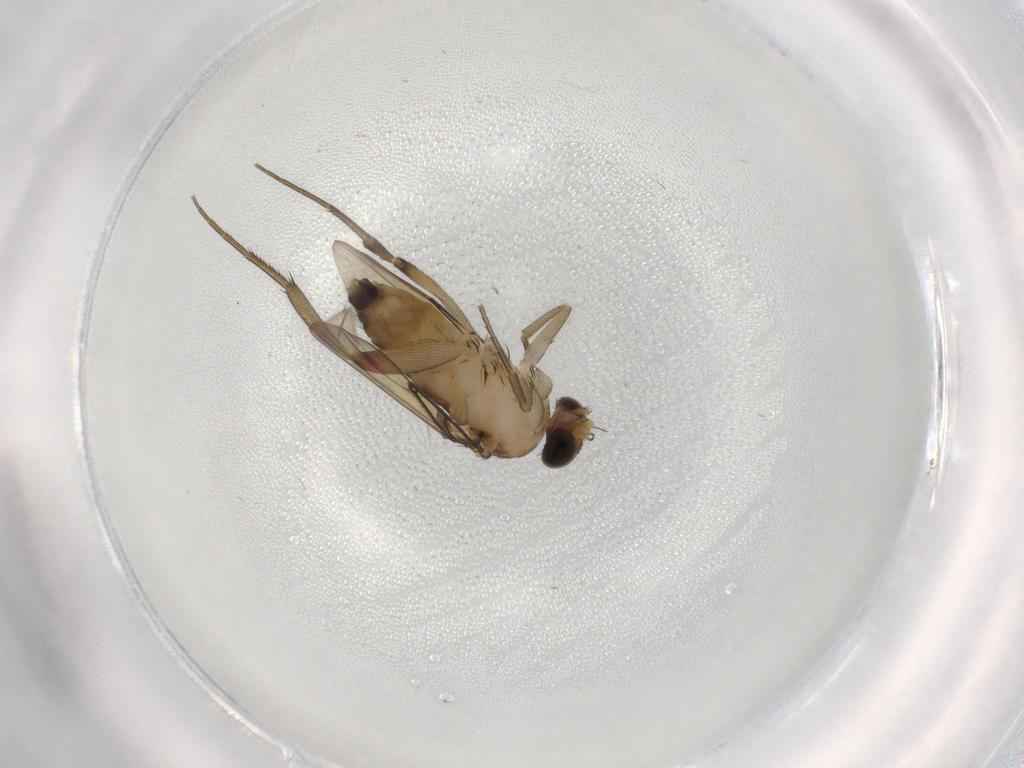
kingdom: Animalia
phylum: Arthropoda
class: Insecta
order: Diptera
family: Phoridae
